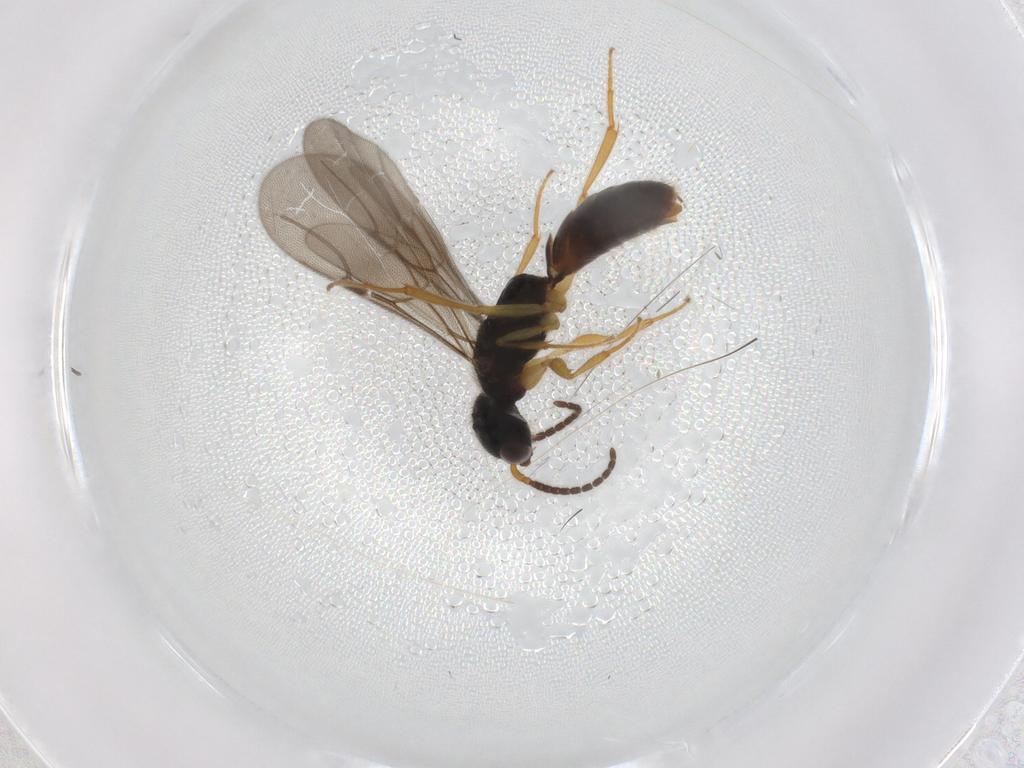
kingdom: Animalia
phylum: Arthropoda
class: Insecta
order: Hymenoptera
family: Bethylidae
